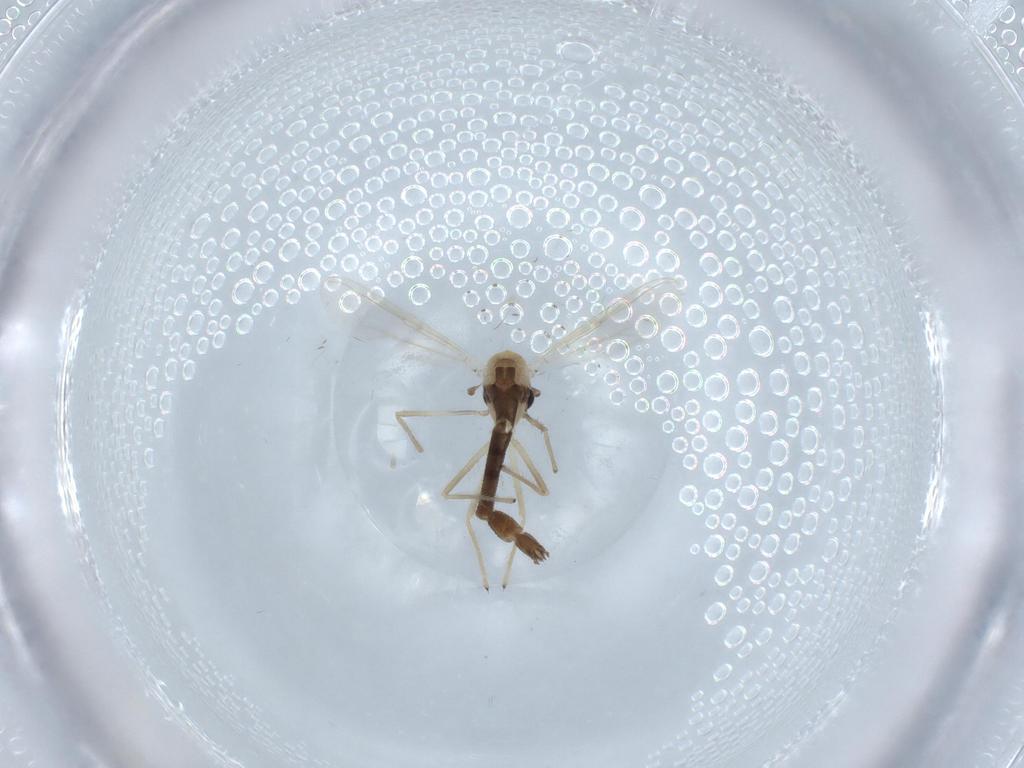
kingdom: Animalia
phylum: Arthropoda
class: Insecta
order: Diptera
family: Chironomidae
